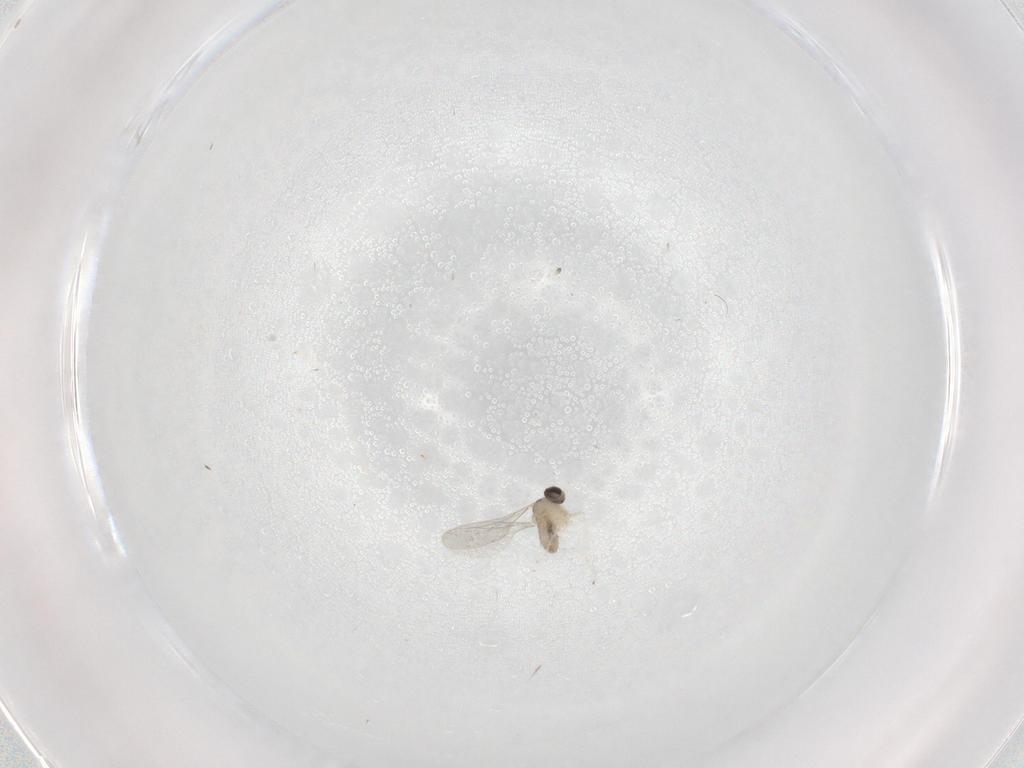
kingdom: Animalia
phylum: Arthropoda
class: Insecta
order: Diptera
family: Cecidomyiidae
